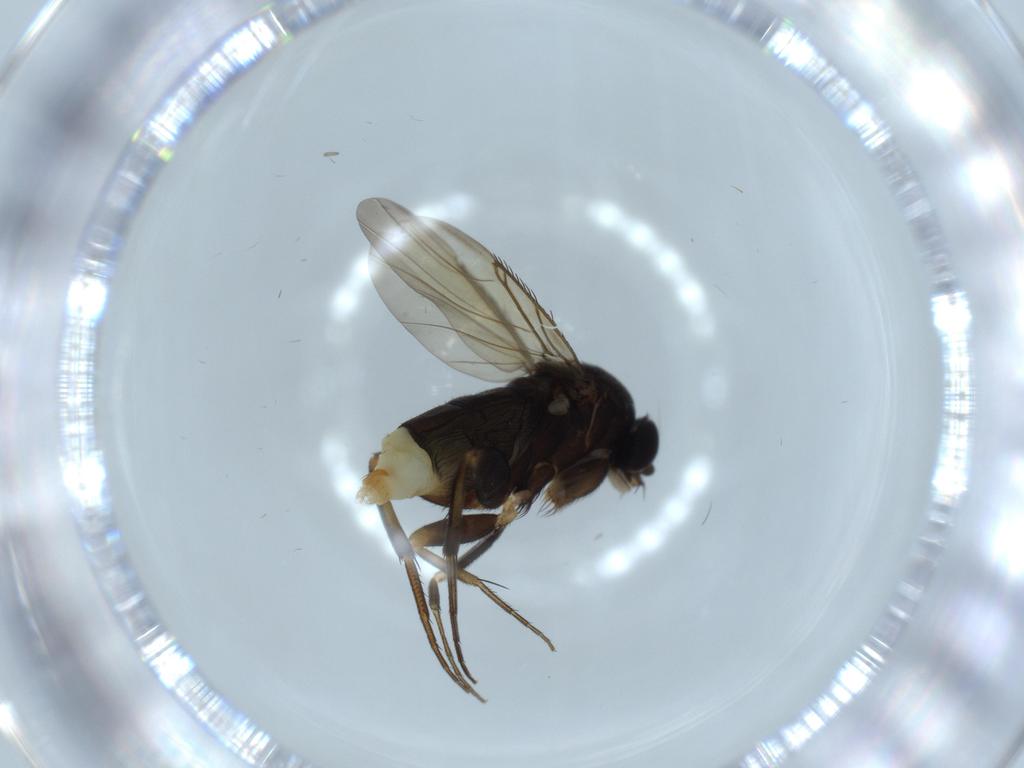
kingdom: Animalia
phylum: Arthropoda
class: Insecta
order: Diptera
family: Phoridae
